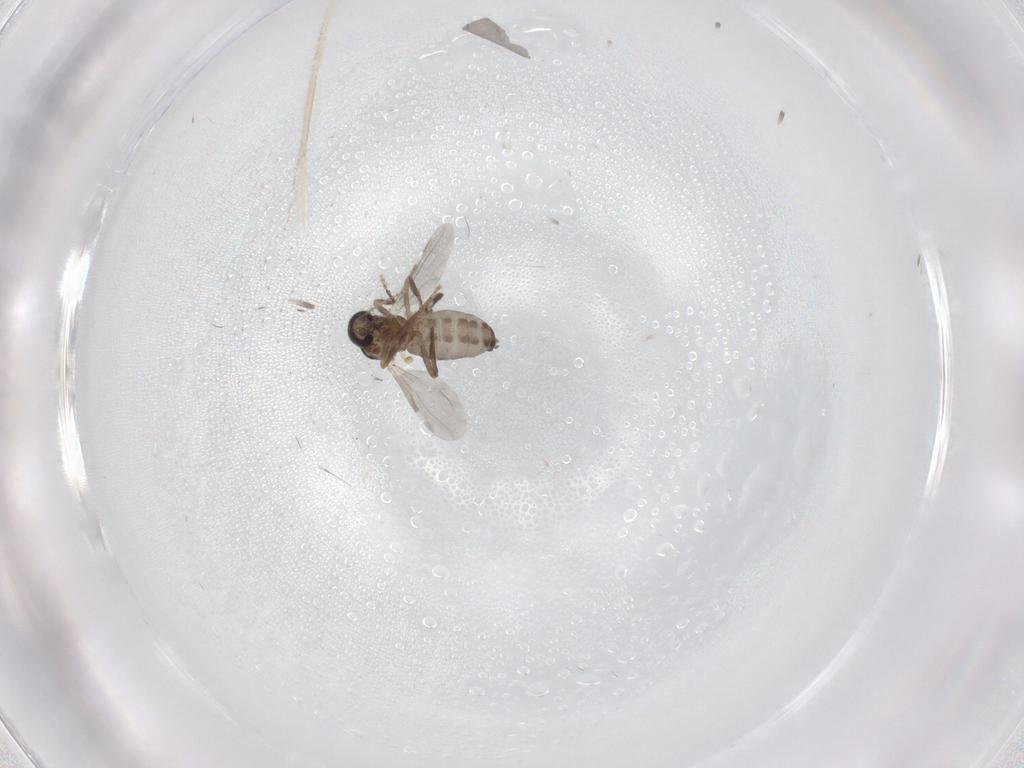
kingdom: Animalia
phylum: Arthropoda
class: Insecta
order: Diptera
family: Ceratopogonidae
